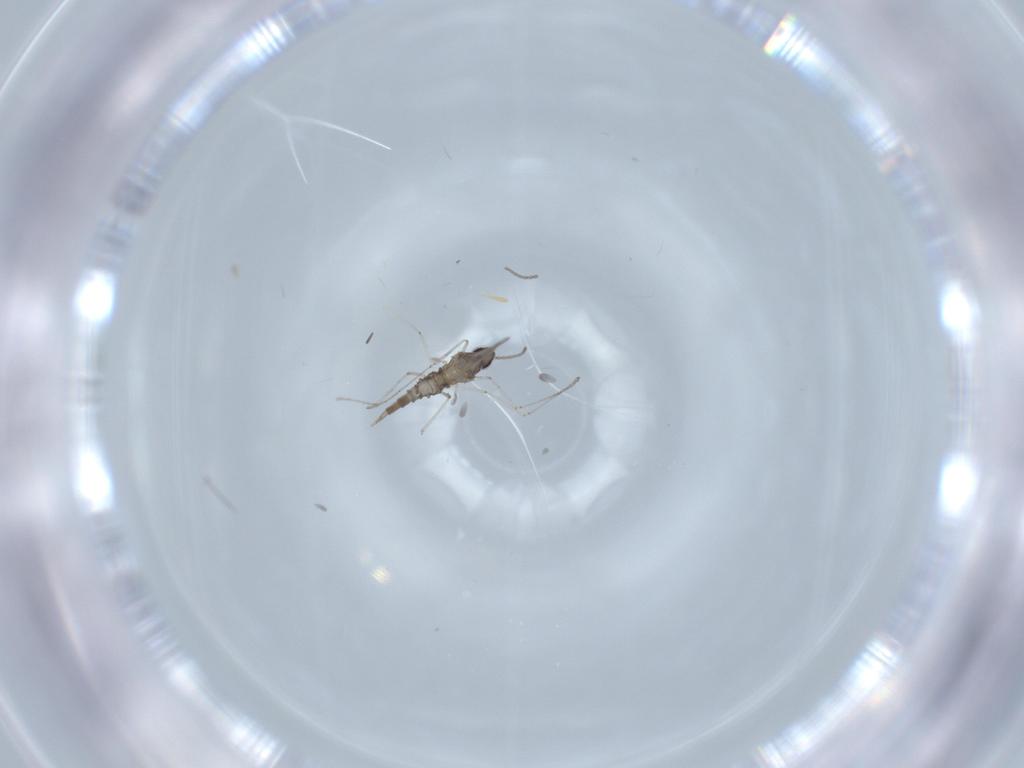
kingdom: Animalia
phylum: Arthropoda
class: Insecta
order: Diptera
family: Cecidomyiidae
